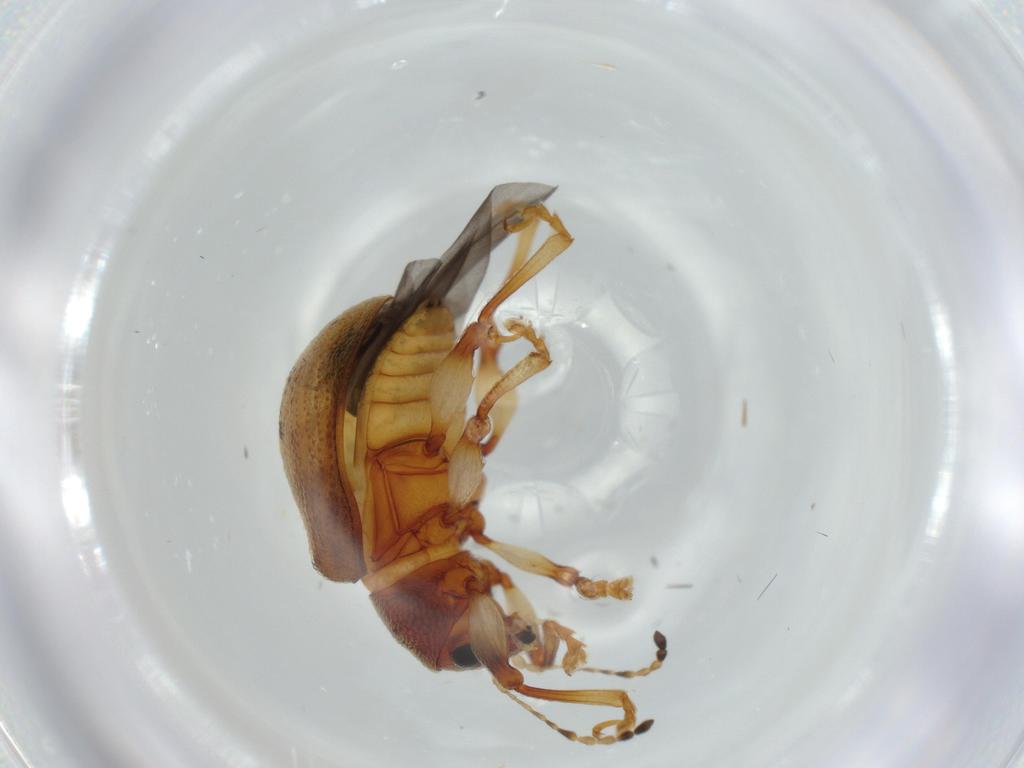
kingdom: Animalia
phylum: Arthropoda
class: Insecta
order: Coleoptera
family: Chrysomelidae
